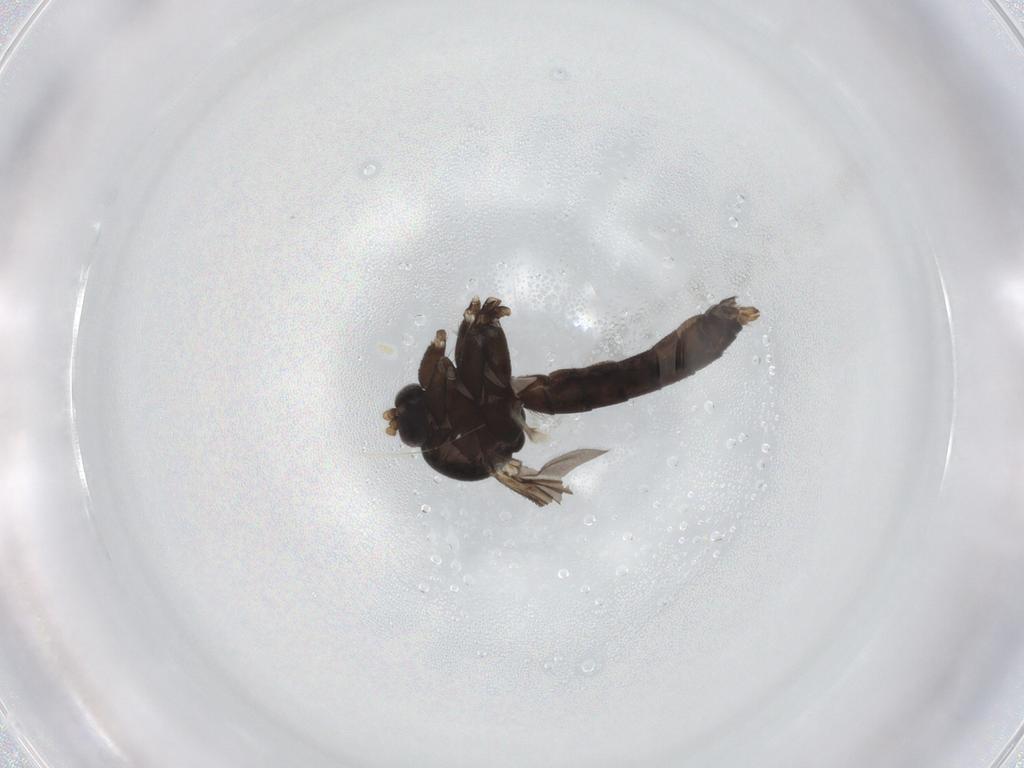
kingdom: Animalia
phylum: Arthropoda
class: Insecta
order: Diptera
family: Mycetophilidae
